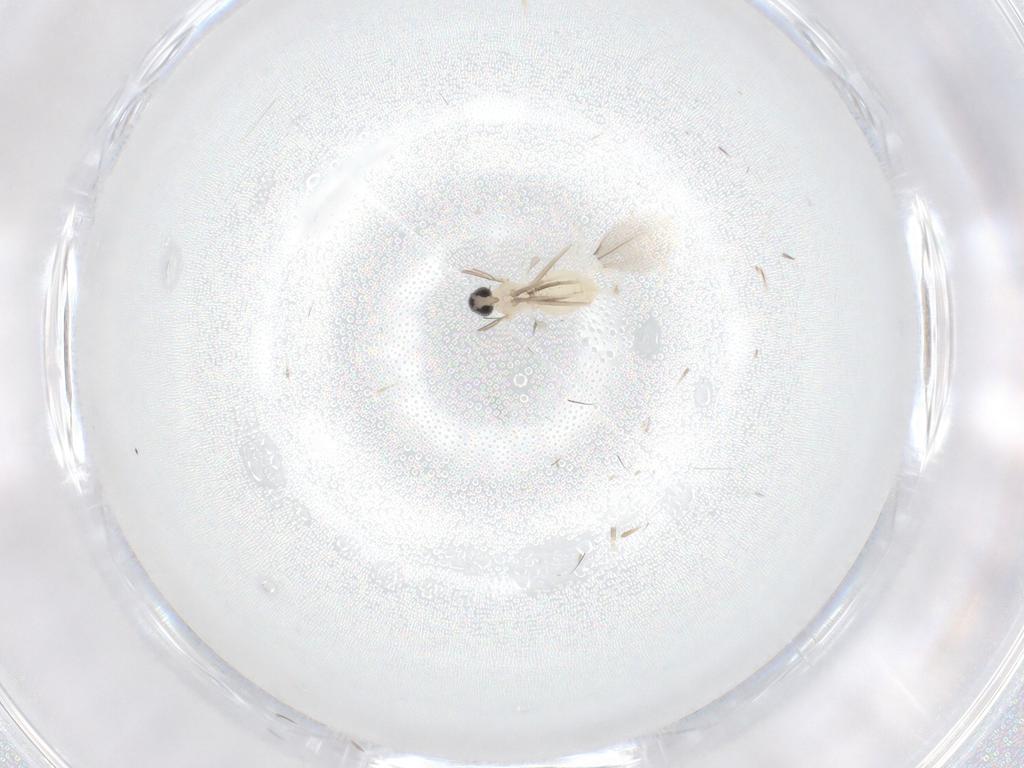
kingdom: Animalia
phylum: Arthropoda
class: Insecta
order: Diptera
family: Cecidomyiidae
